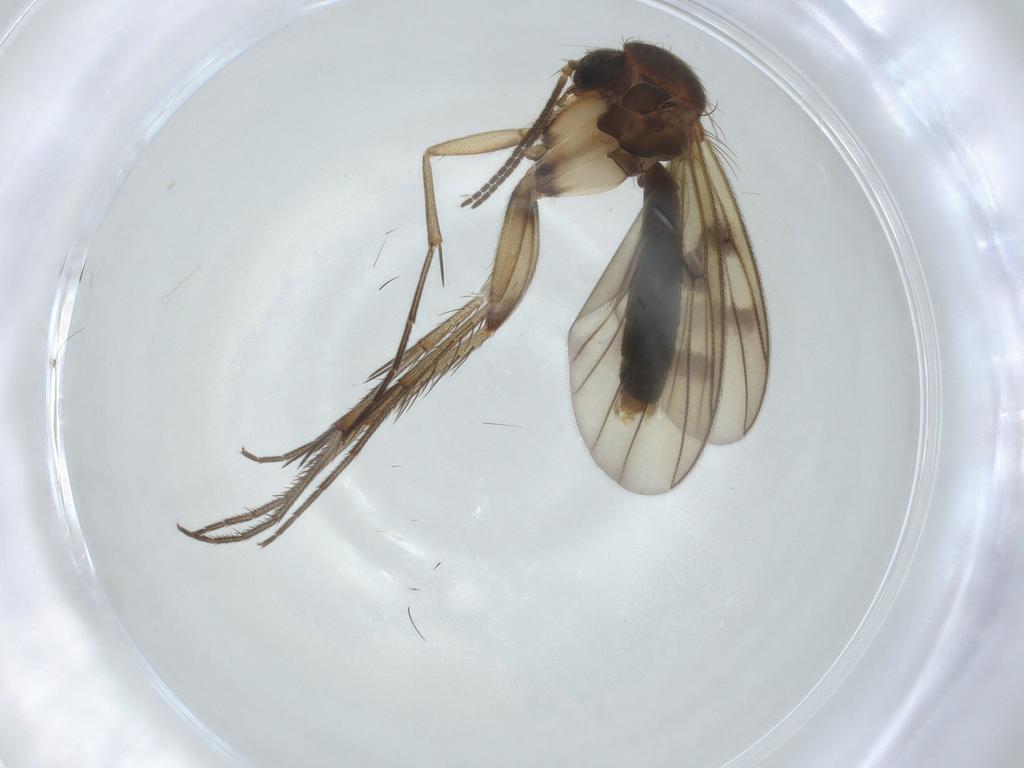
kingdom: Animalia
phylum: Arthropoda
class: Insecta
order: Diptera
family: Mycetophilidae
